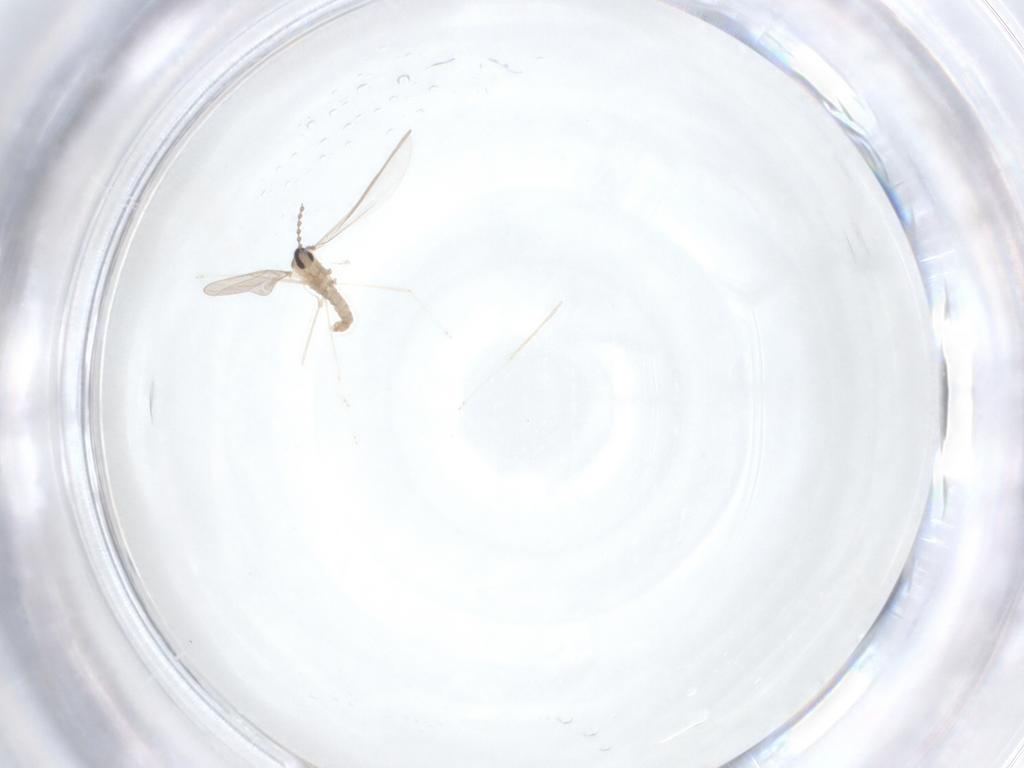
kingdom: Animalia
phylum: Arthropoda
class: Insecta
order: Diptera
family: Cecidomyiidae
